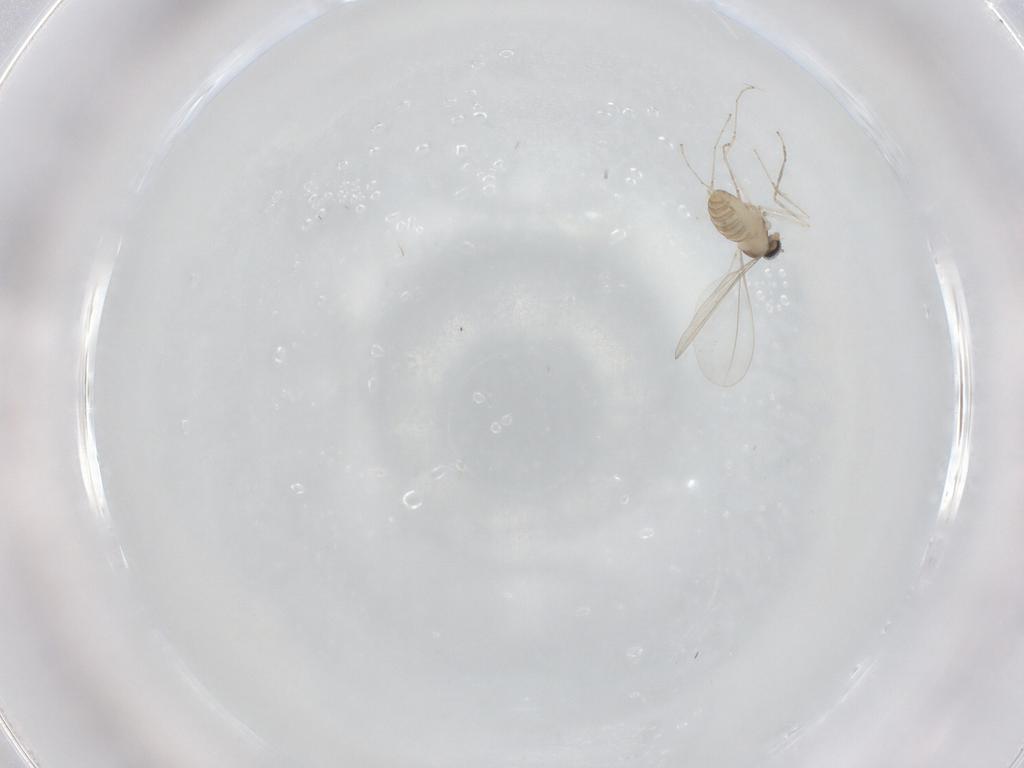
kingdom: Animalia
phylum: Arthropoda
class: Insecta
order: Diptera
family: Cecidomyiidae
